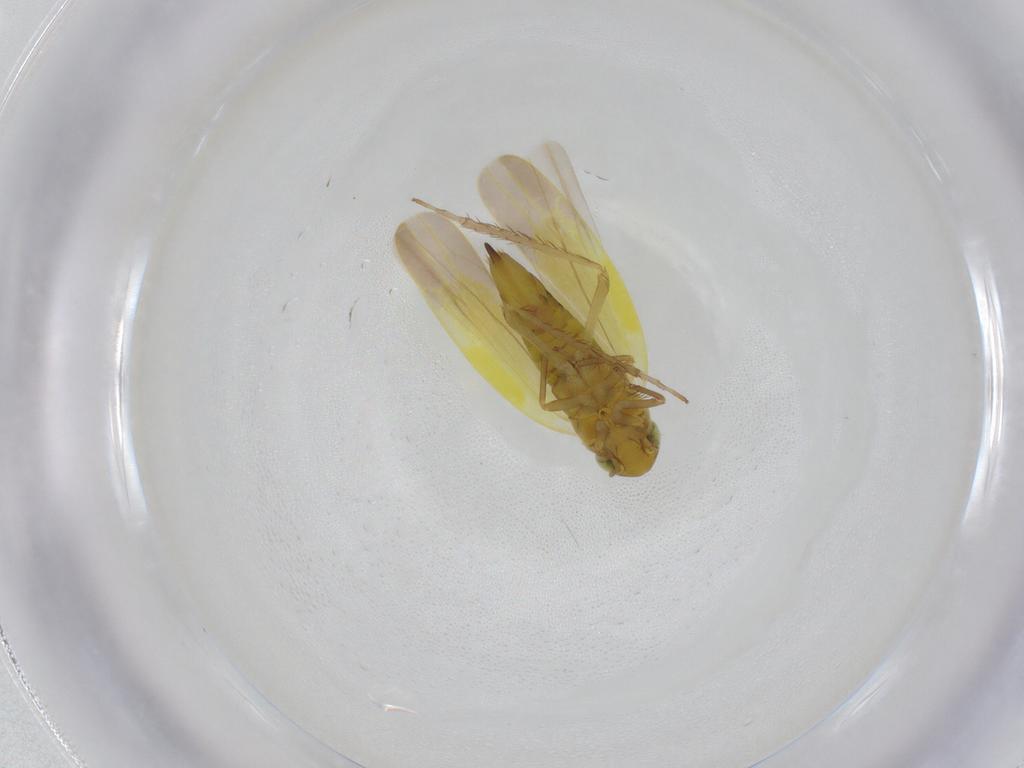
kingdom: Animalia
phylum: Arthropoda
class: Insecta
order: Hemiptera
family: Cicadellidae
